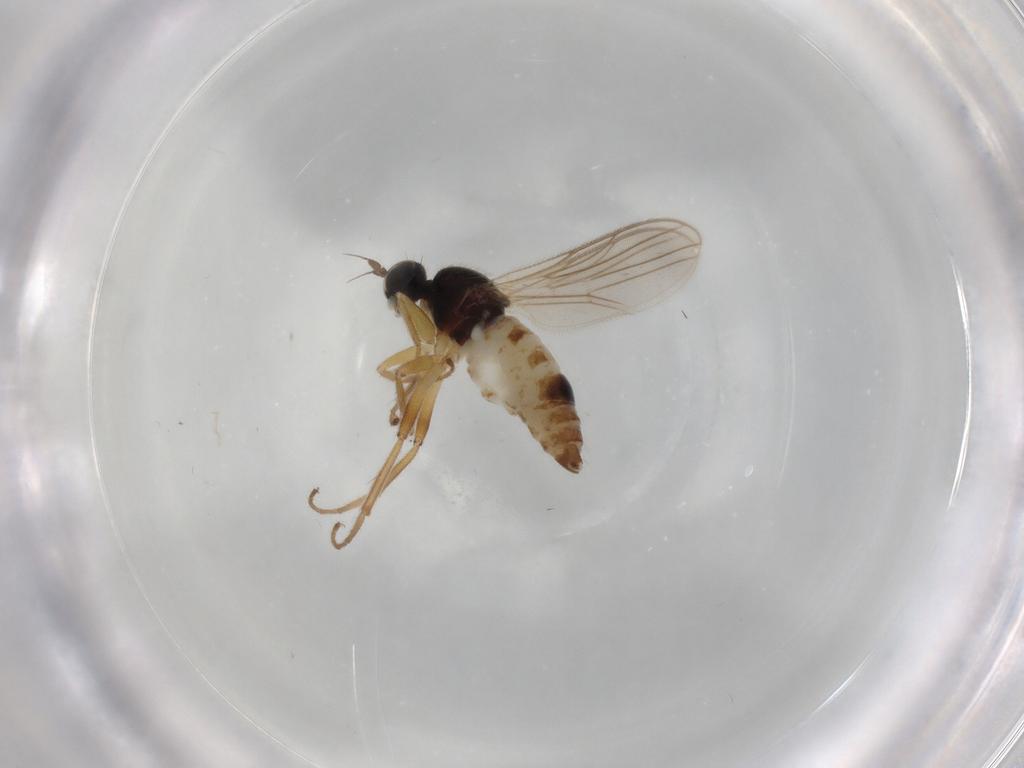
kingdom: Animalia
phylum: Arthropoda
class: Insecta
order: Diptera
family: Hybotidae
